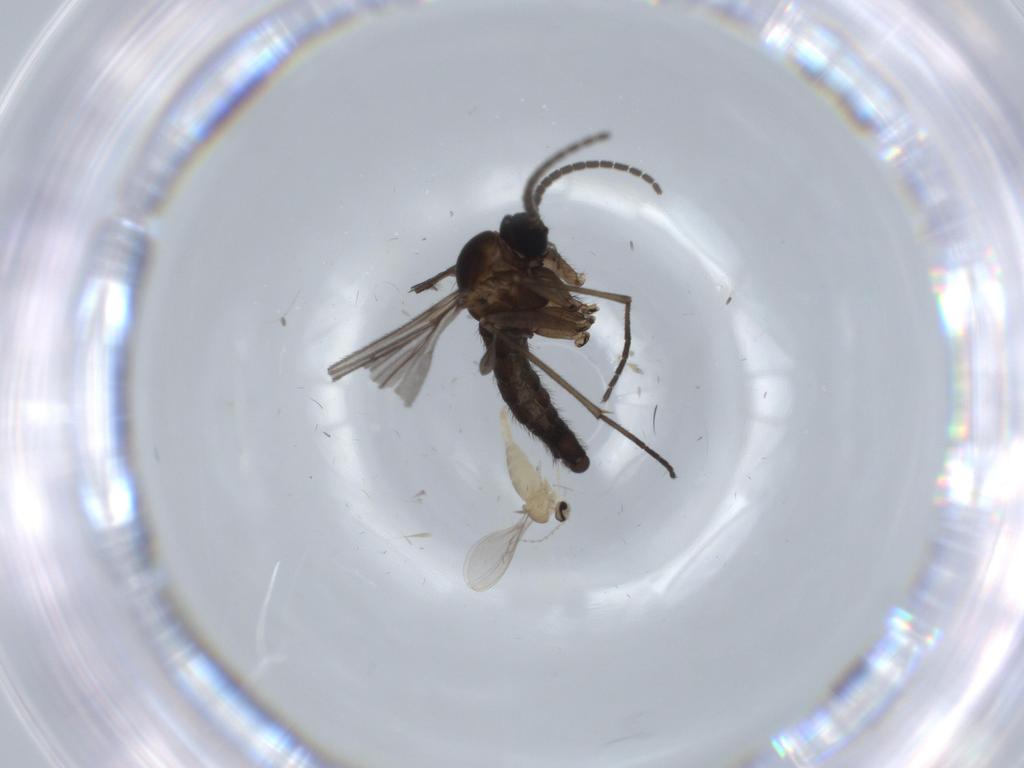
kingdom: Animalia
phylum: Arthropoda
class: Insecta
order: Diptera
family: Sciaridae
